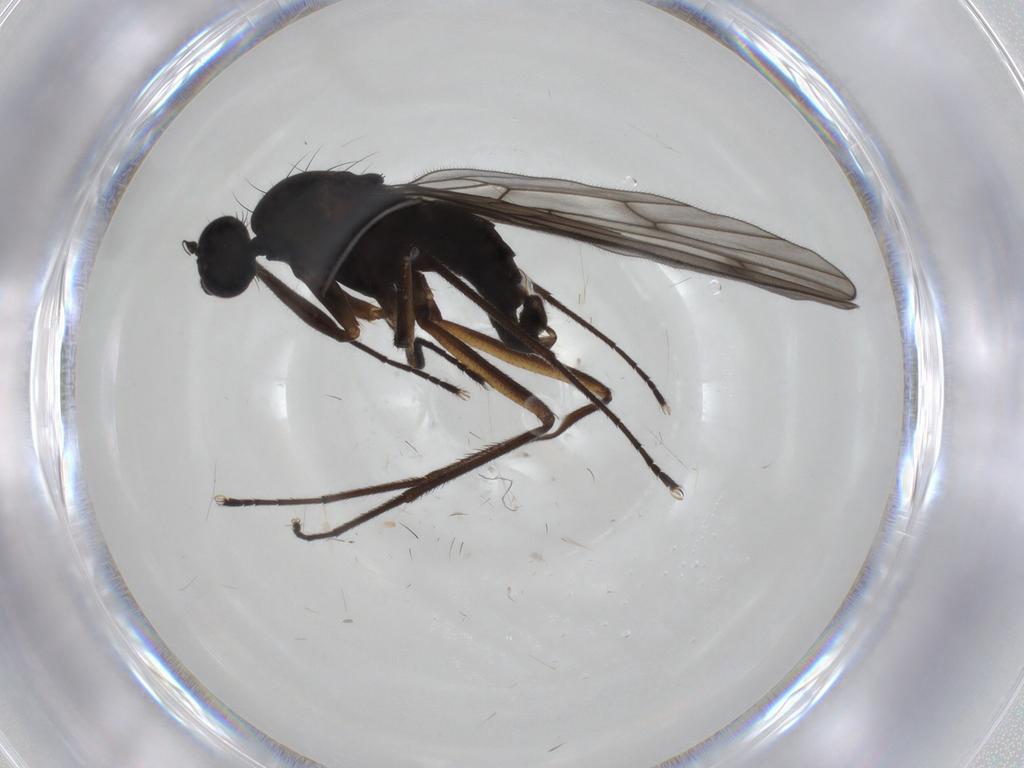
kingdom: Animalia
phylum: Arthropoda
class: Insecta
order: Diptera
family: Empididae
